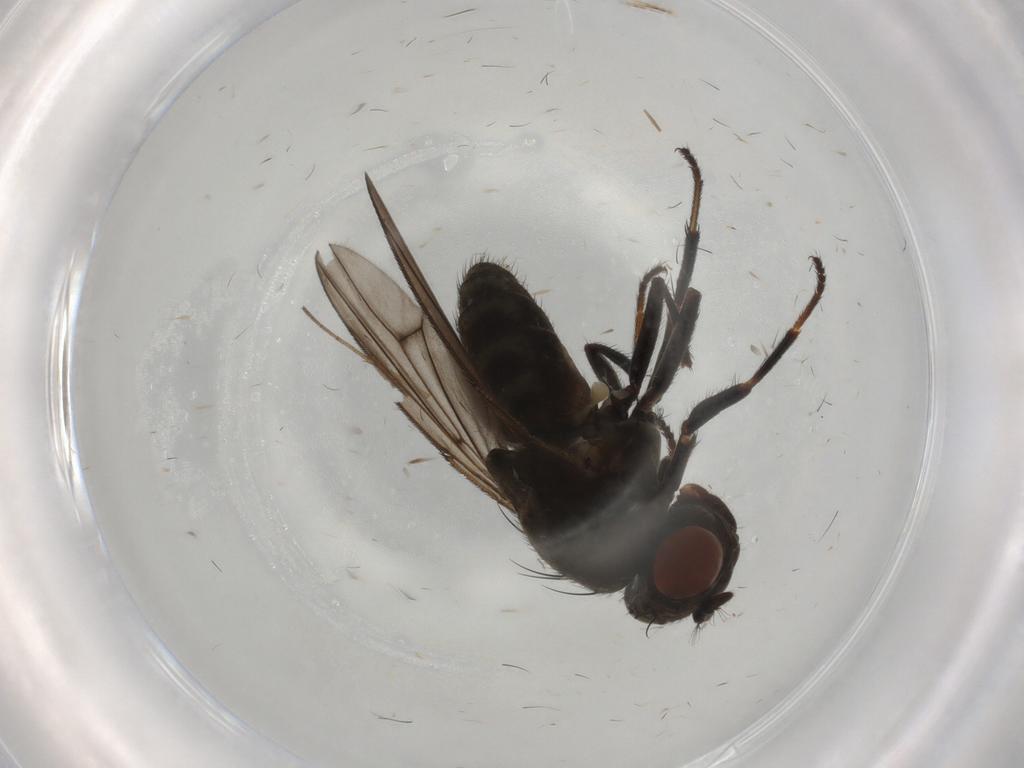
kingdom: Animalia
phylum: Arthropoda
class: Insecta
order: Diptera
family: Ephydridae
